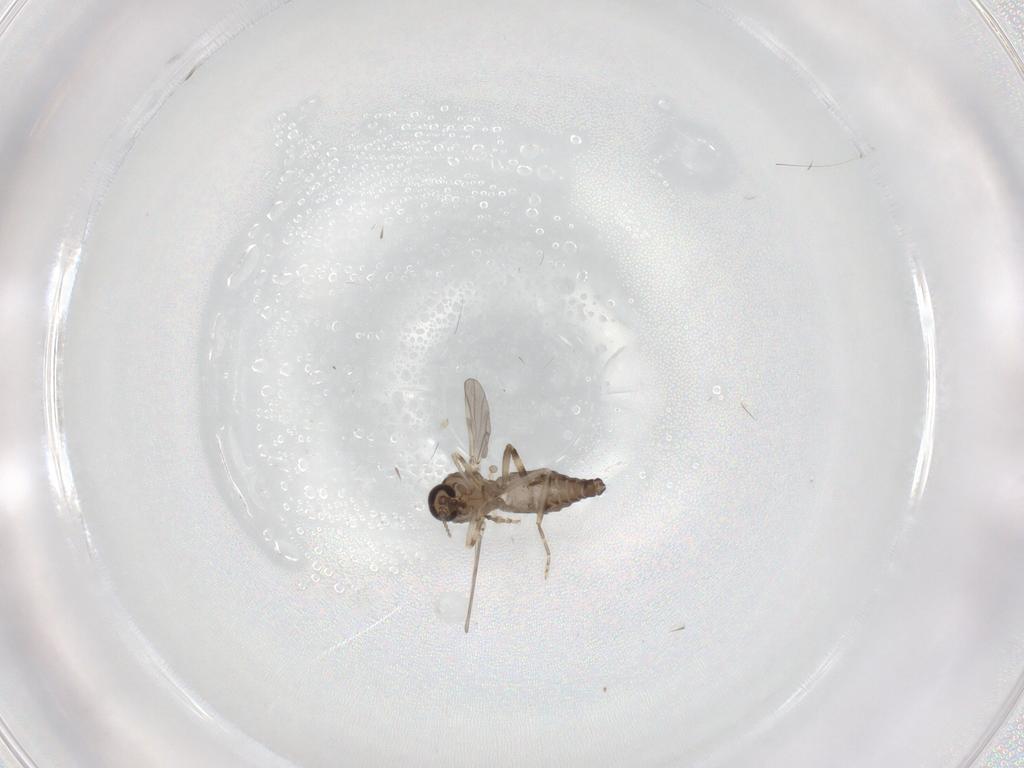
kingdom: Animalia
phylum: Arthropoda
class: Insecta
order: Diptera
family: Ceratopogonidae
